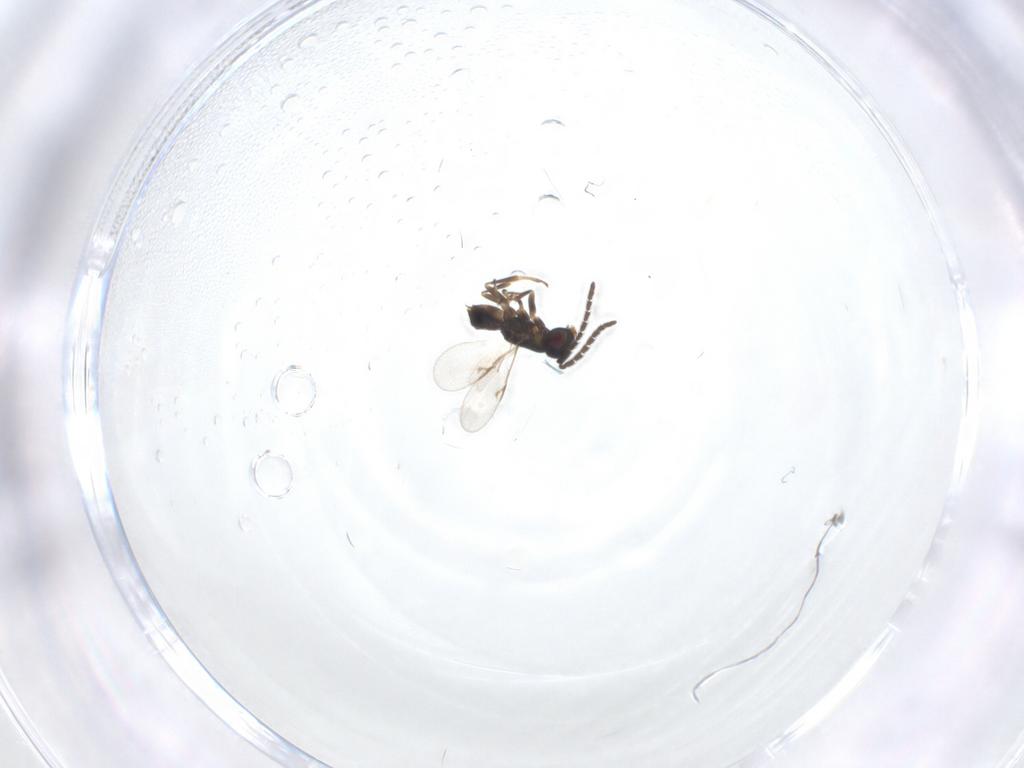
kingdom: Animalia
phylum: Arthropoda
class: Insecta
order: Hymenoptera
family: Encyrtidae
